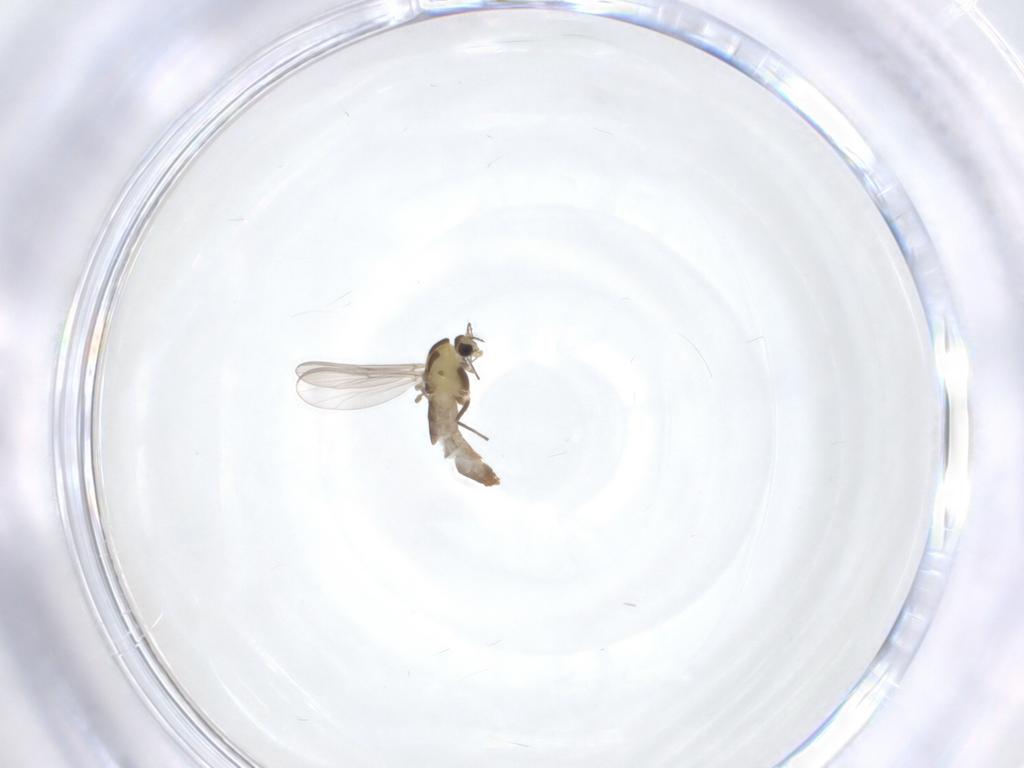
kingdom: Animalia
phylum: Arthropoda
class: Insecta
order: Diptera
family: Chironomidae
